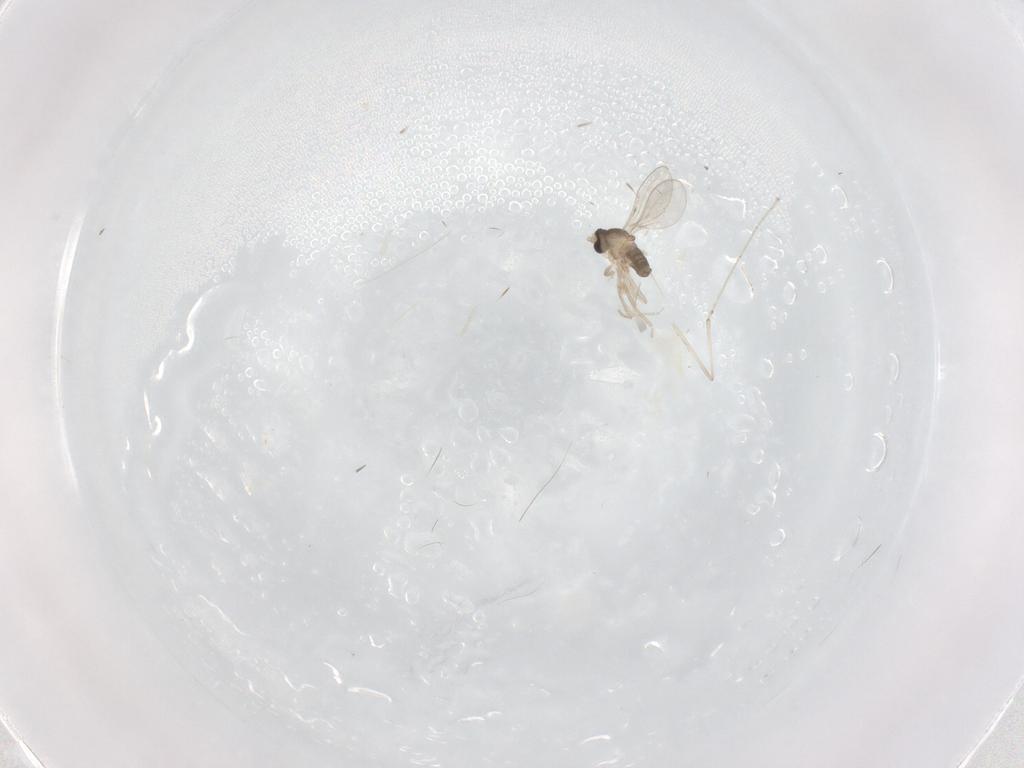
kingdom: Animalia
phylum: Arthropoda
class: Insecta
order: Diptera
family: Cecidomyiidae
